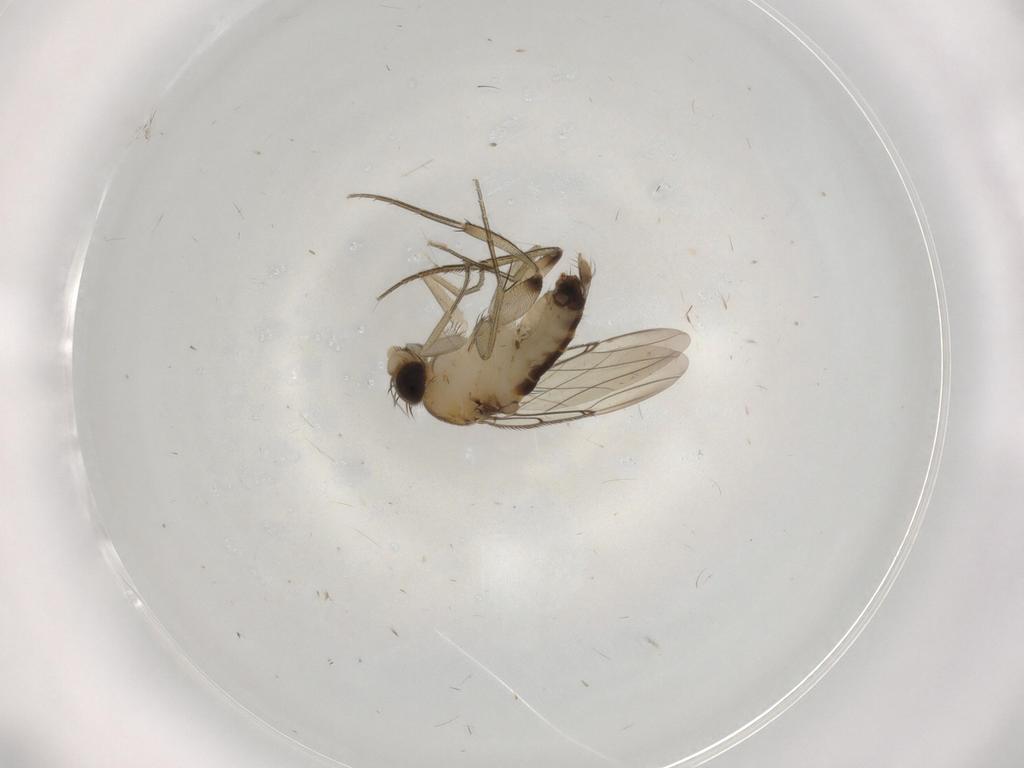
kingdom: Animalia
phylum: Arthropoda
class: Insecta
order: Diptera
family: Phoridae
